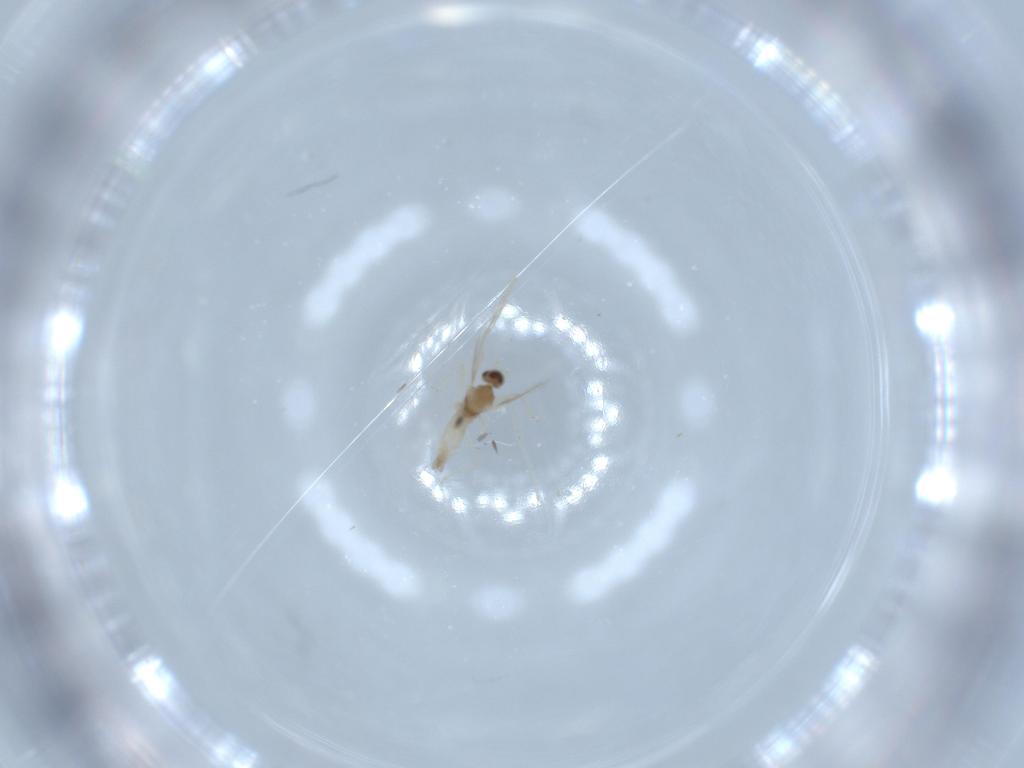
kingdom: Animalia
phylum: Arthropoda
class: Insecta
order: Diptera
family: Cecidomyiidae
